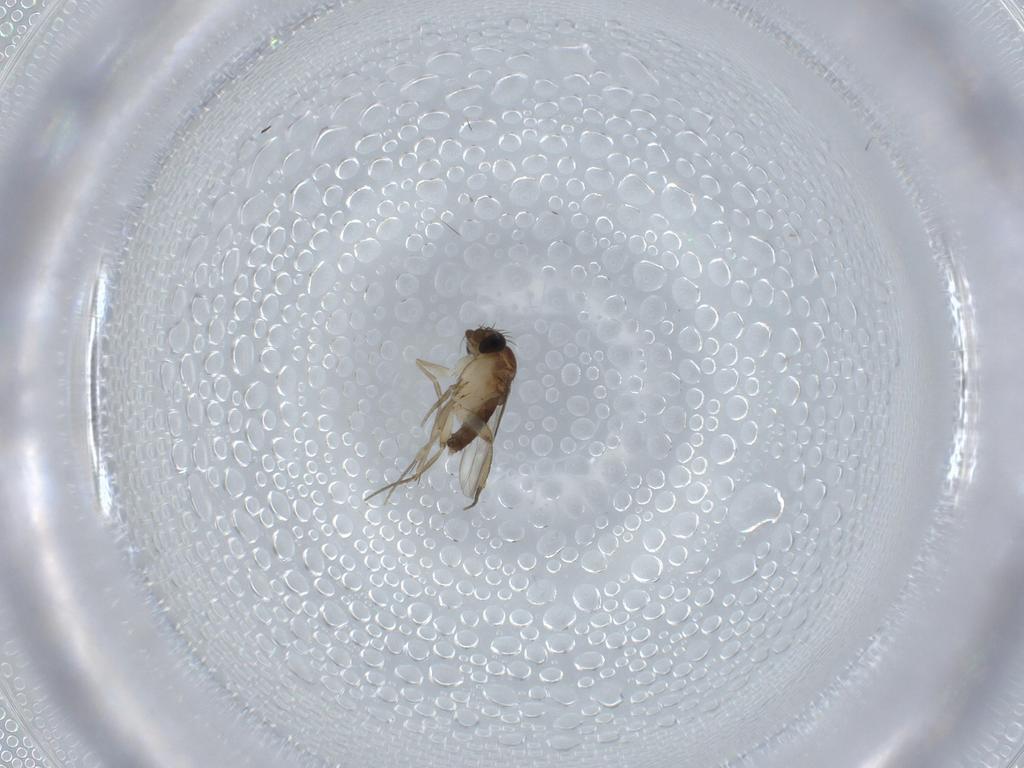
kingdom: Animalia
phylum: Arthropoda
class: Insecta
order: Diptera
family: Phoridae
